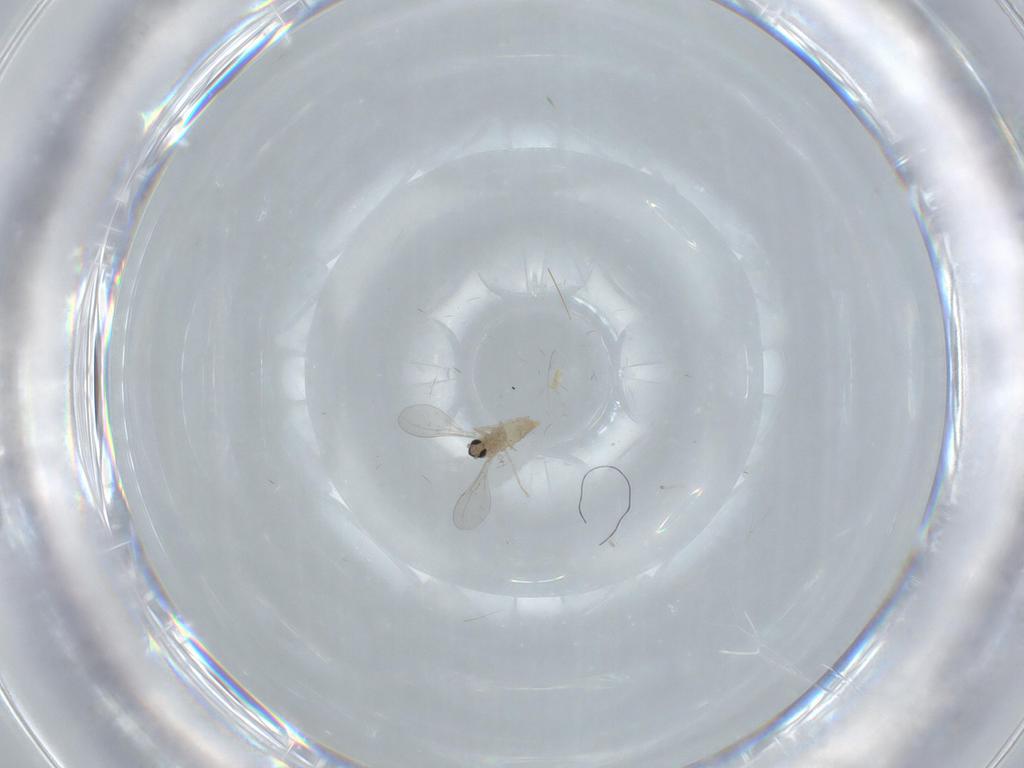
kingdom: Animalia
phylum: Arthropoda
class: Insecta
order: Diptera
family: Cecidomyiidae
